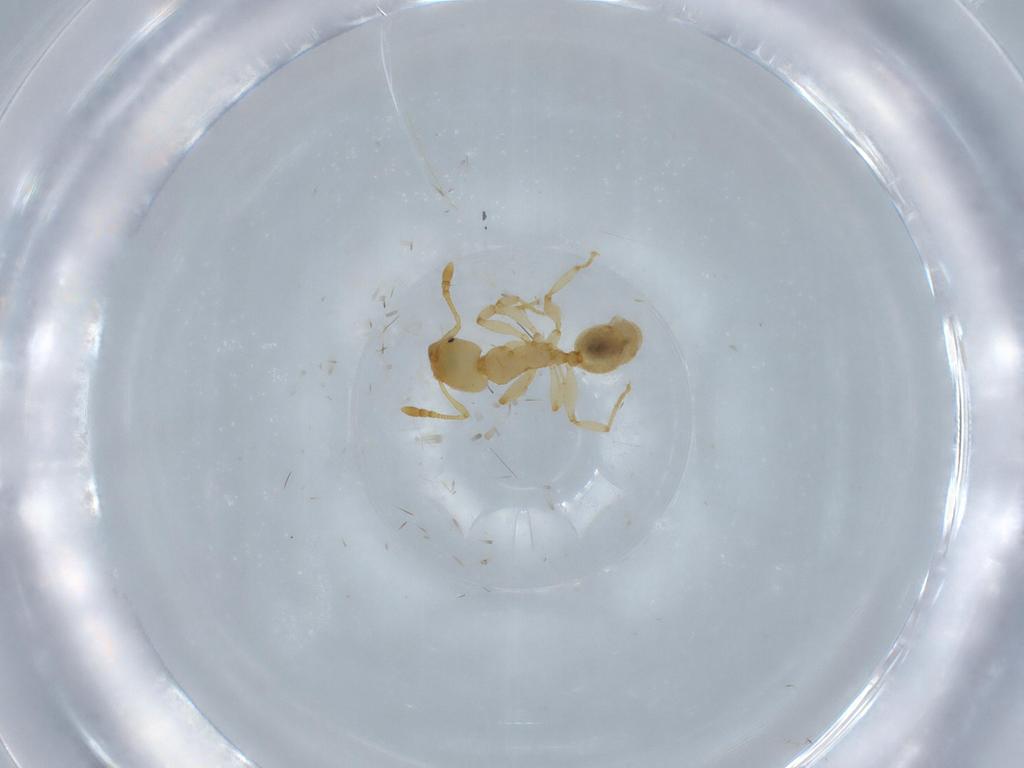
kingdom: Animalia
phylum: Arthropoda
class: Insecta
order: Hymenoptera
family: Formicidae
